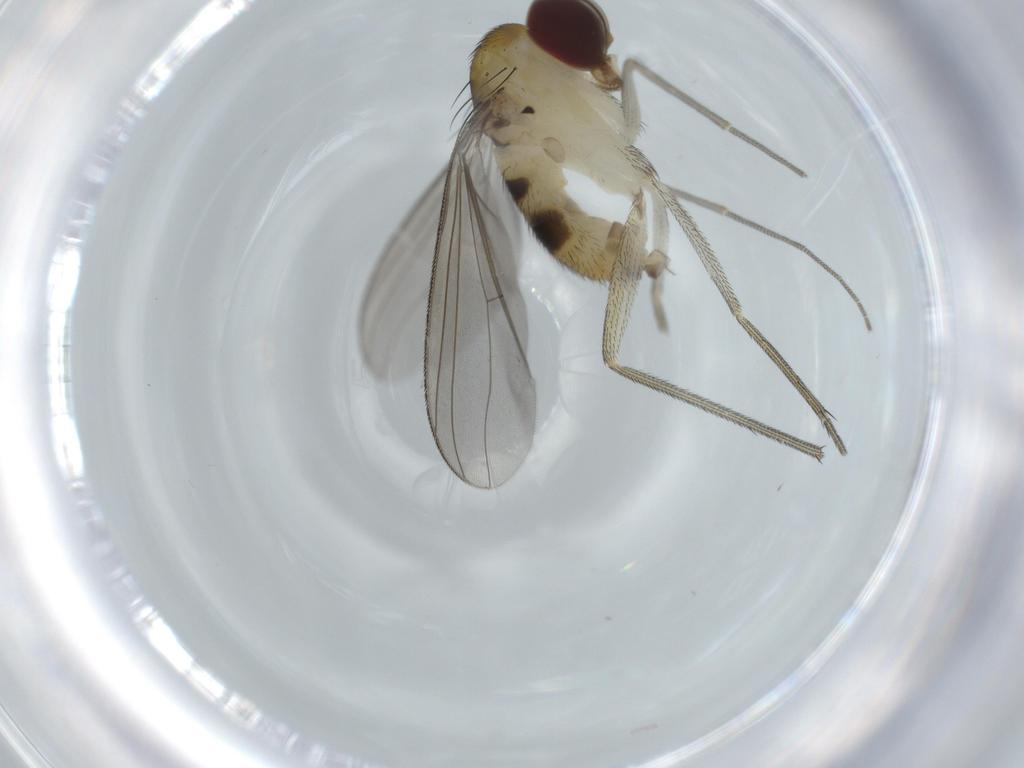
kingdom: Animalia
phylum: Arthropoda
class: Insecta
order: Diptera
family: Dolichopodidae
